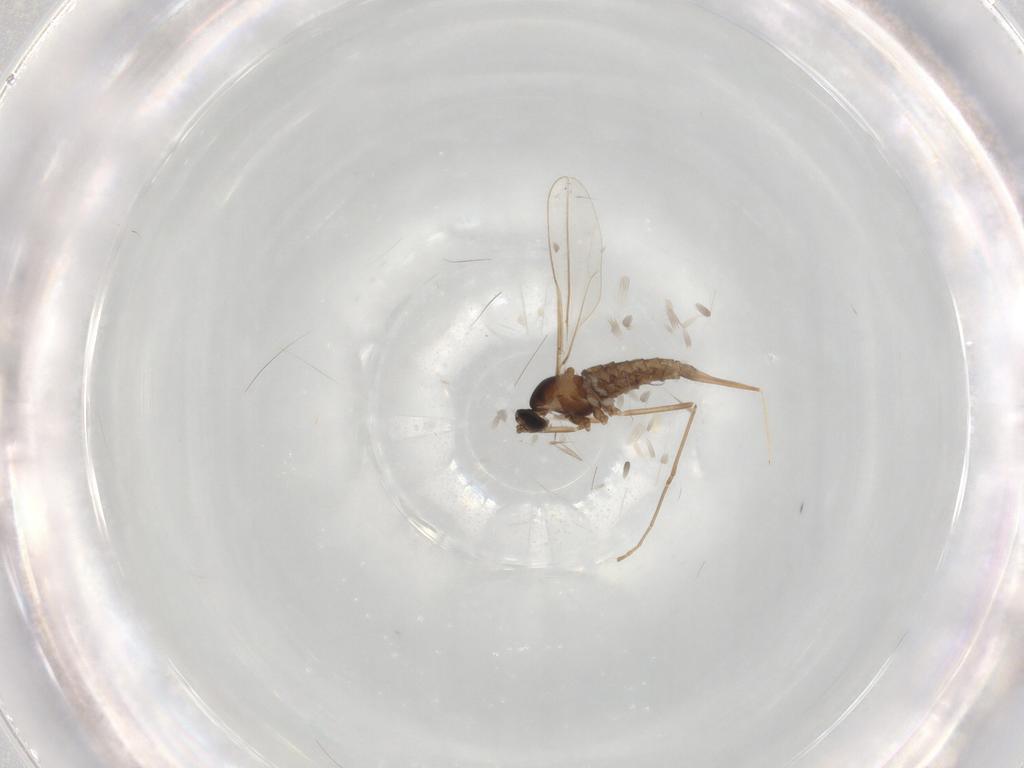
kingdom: Animalia
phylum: Arthropoda
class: Insecta
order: Diptera
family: Cecidomyiidae
